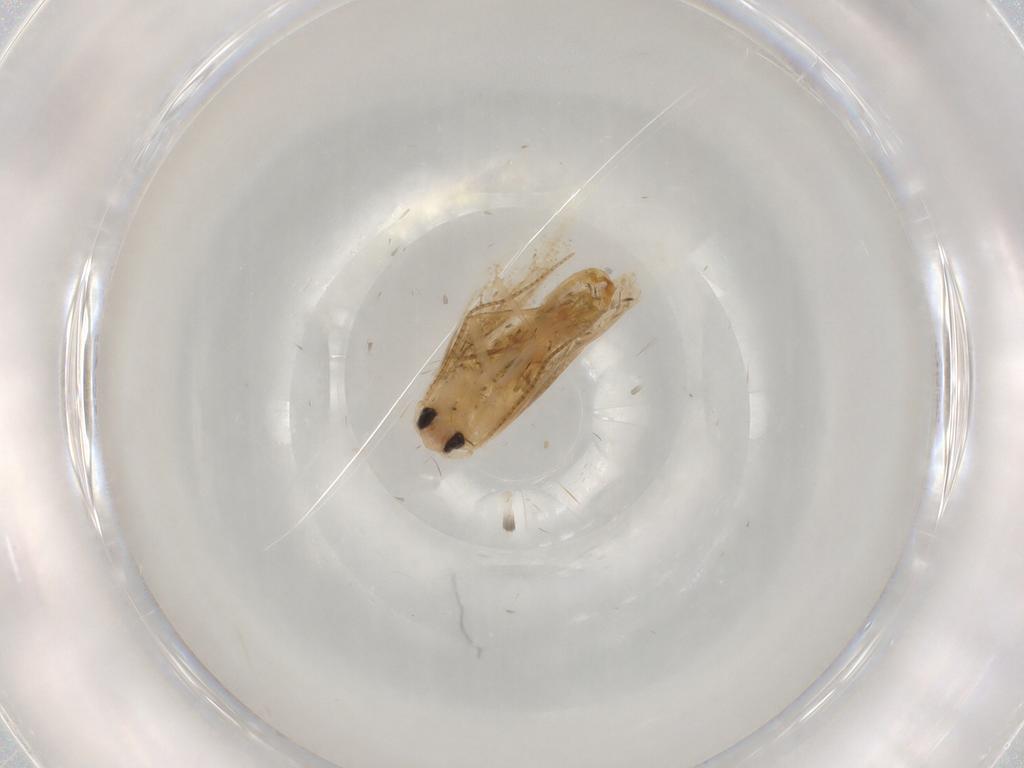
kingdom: Animalia
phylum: Arthropoda
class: Insecta
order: Lepidoptera
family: Noctuidae
